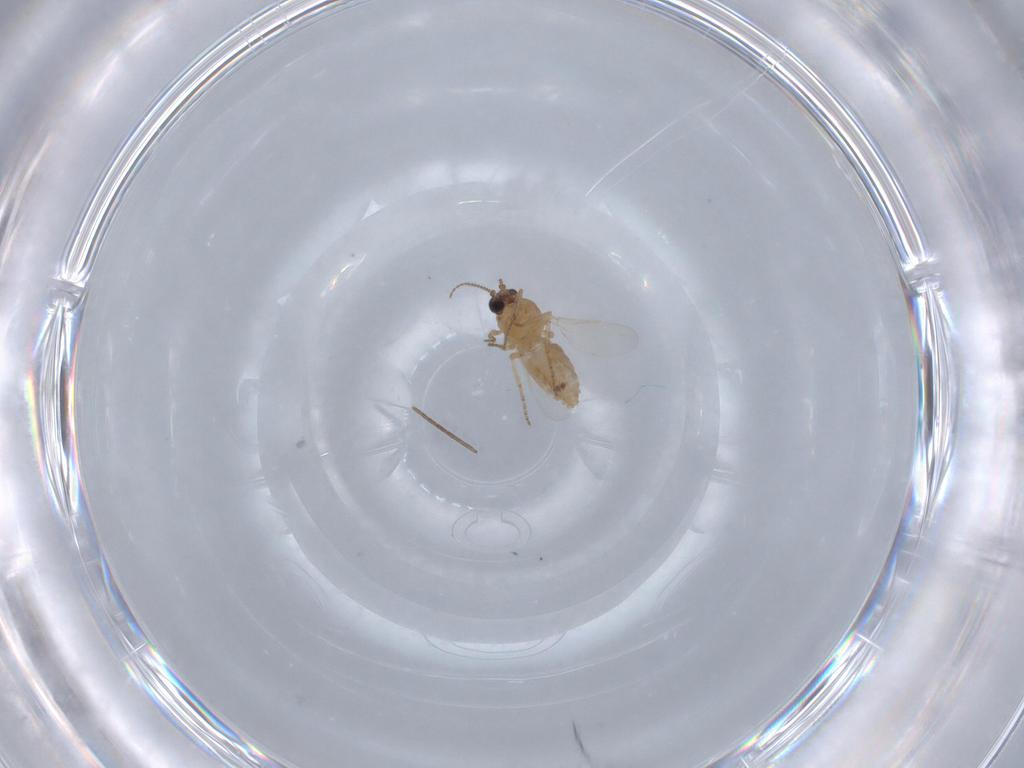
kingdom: Animalia
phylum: Arthropoda
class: Insecta
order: Diptera
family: Ceratopogonidae
